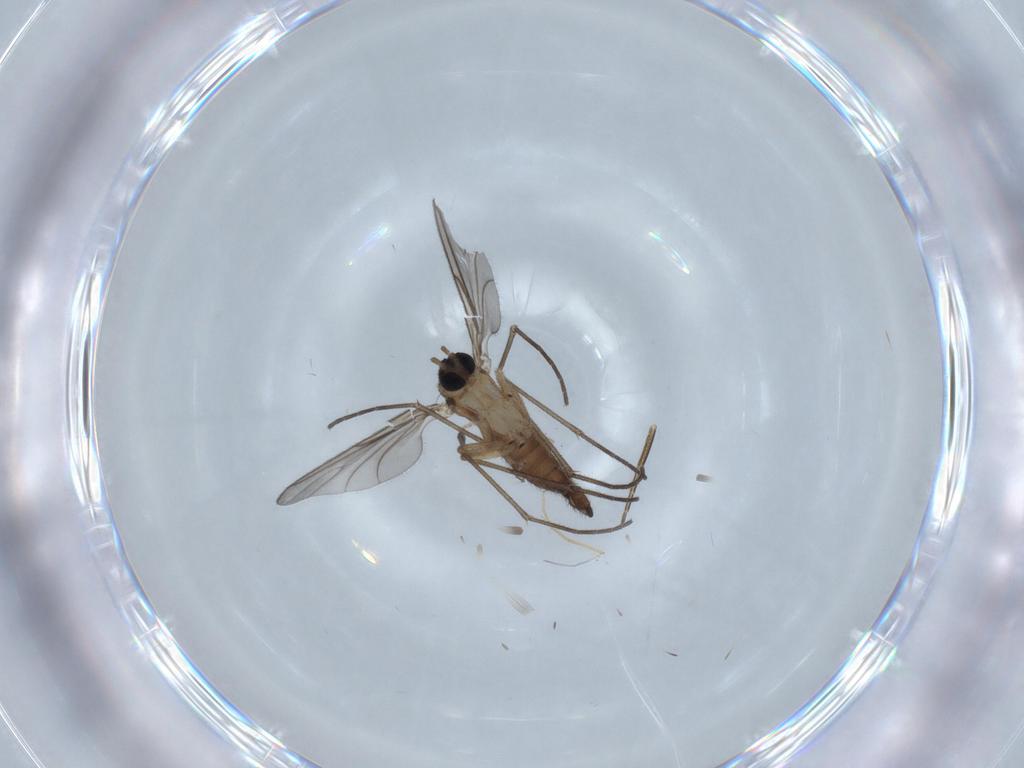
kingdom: Animalia
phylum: Arthropoda
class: Insecta
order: Diptera
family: Sciaridae
